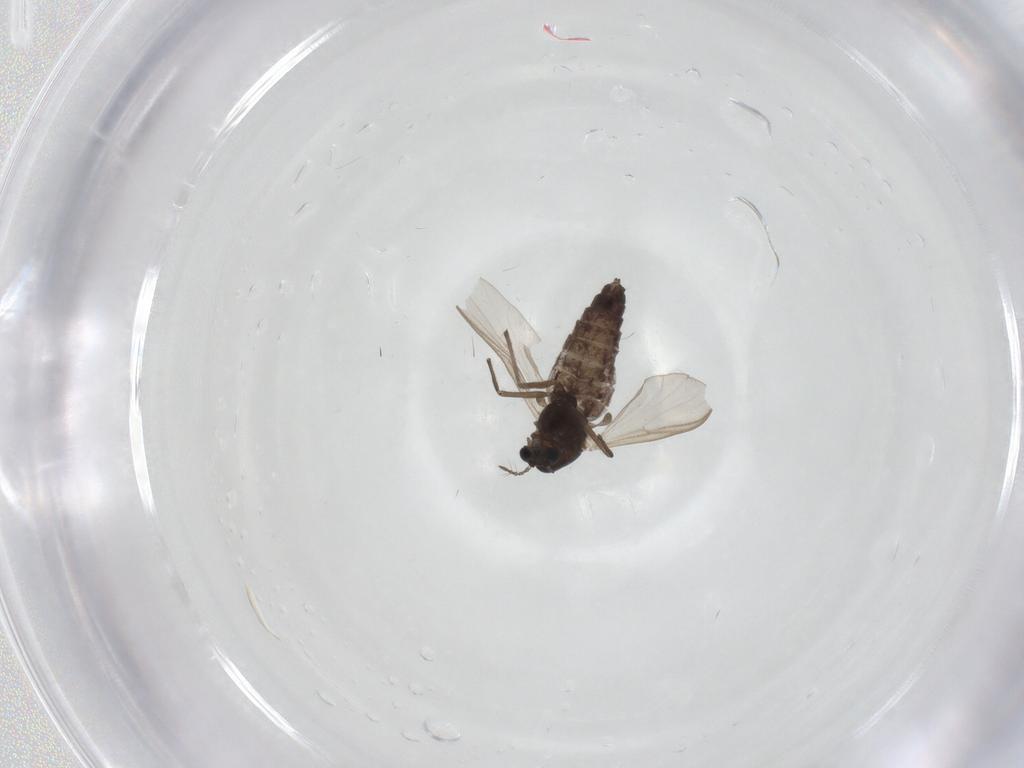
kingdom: Animalia
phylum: Arthropoda
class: Insecta
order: Diptera
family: Chironomidae
